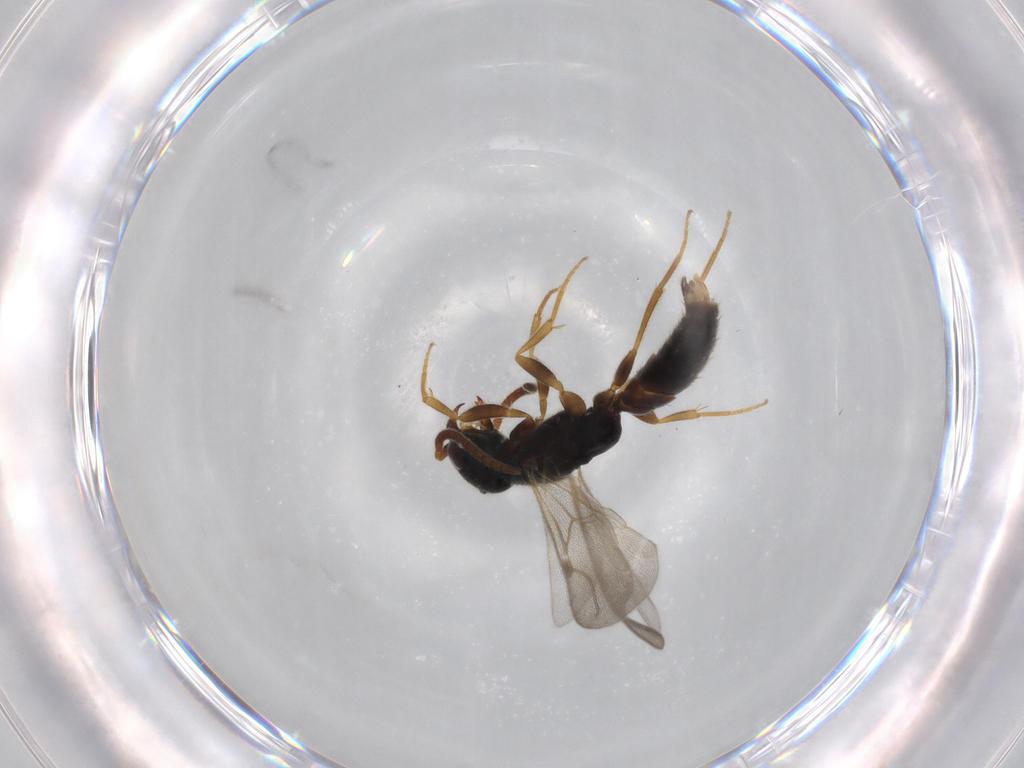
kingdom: Animalia
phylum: Arthropoda
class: Insecta
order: Hymenoptera
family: Bethylidae
